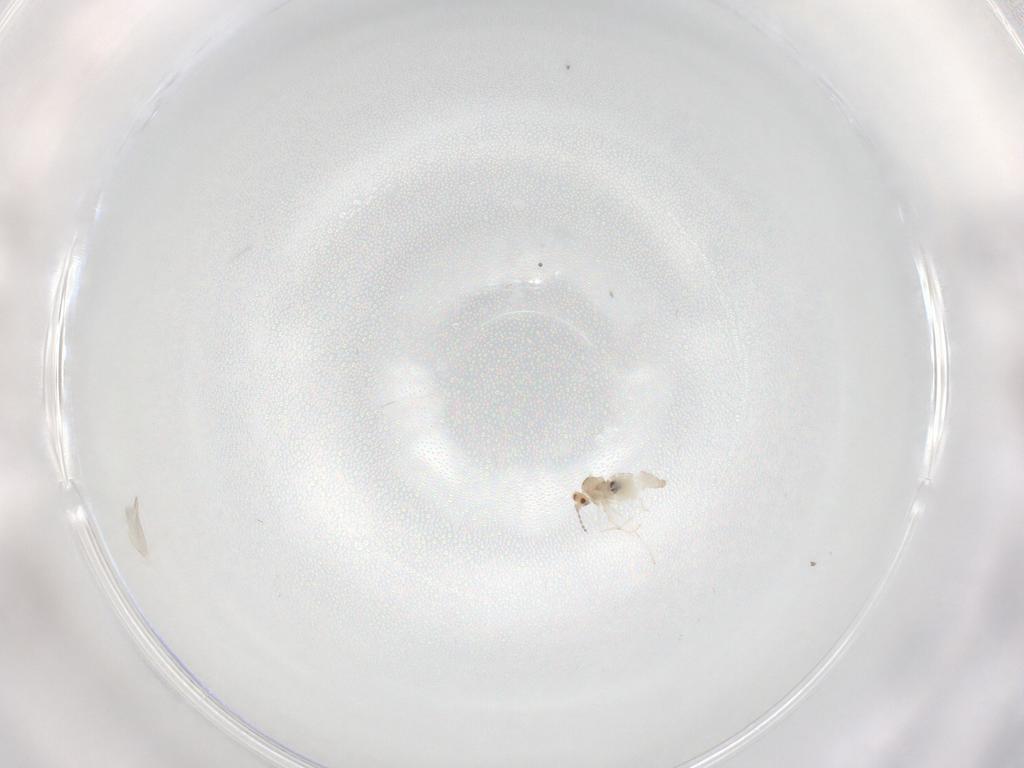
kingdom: Animalia
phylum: Arthropoda
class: Insecta
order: Diptera
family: Cecidomyiidae
